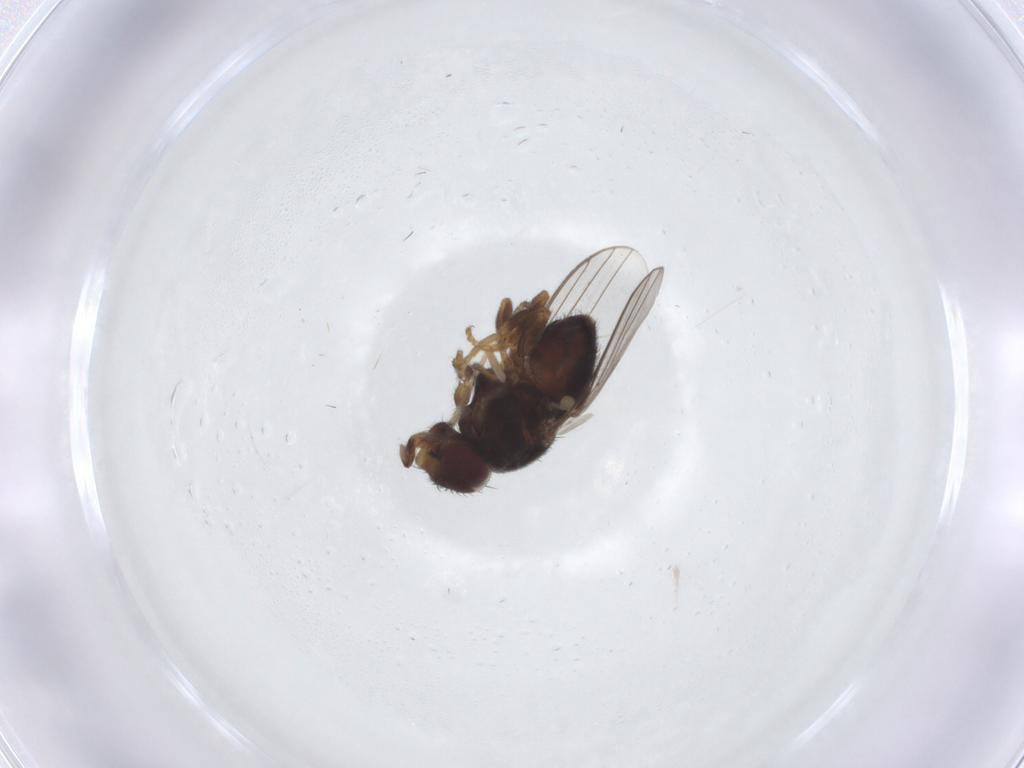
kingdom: Animalia
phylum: Arthropoda
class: Insecta
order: Diptera
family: Chloropidae
